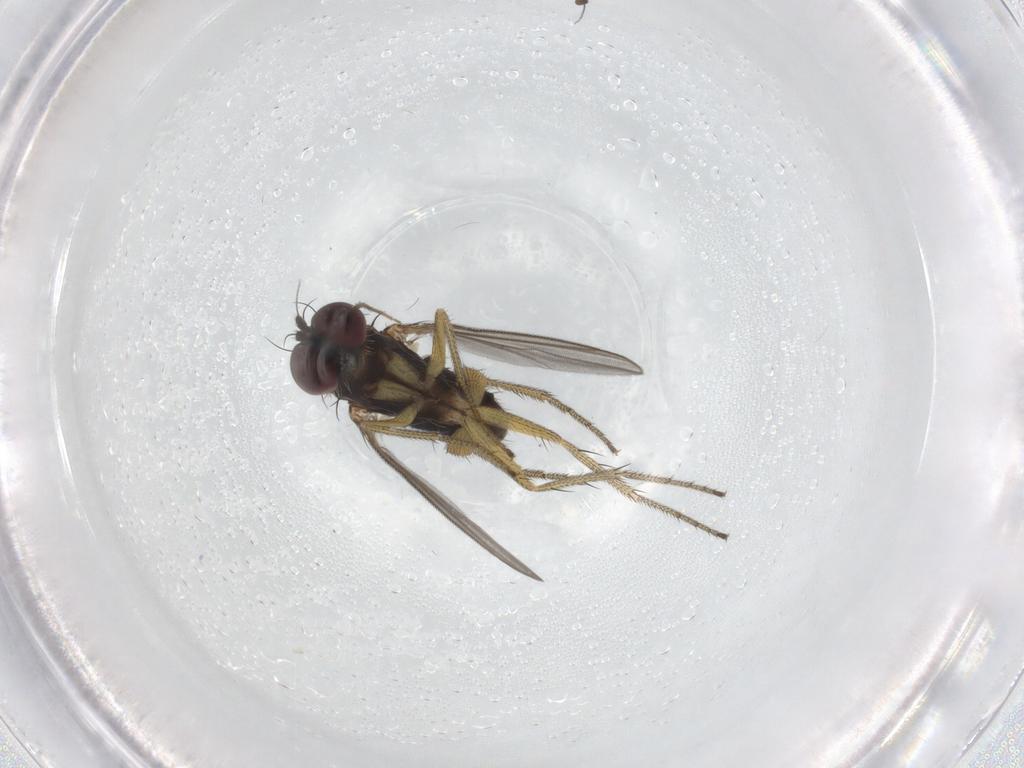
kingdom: Animalia
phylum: Arthropoda
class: Insecta
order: Diptera
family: Chironomidae
